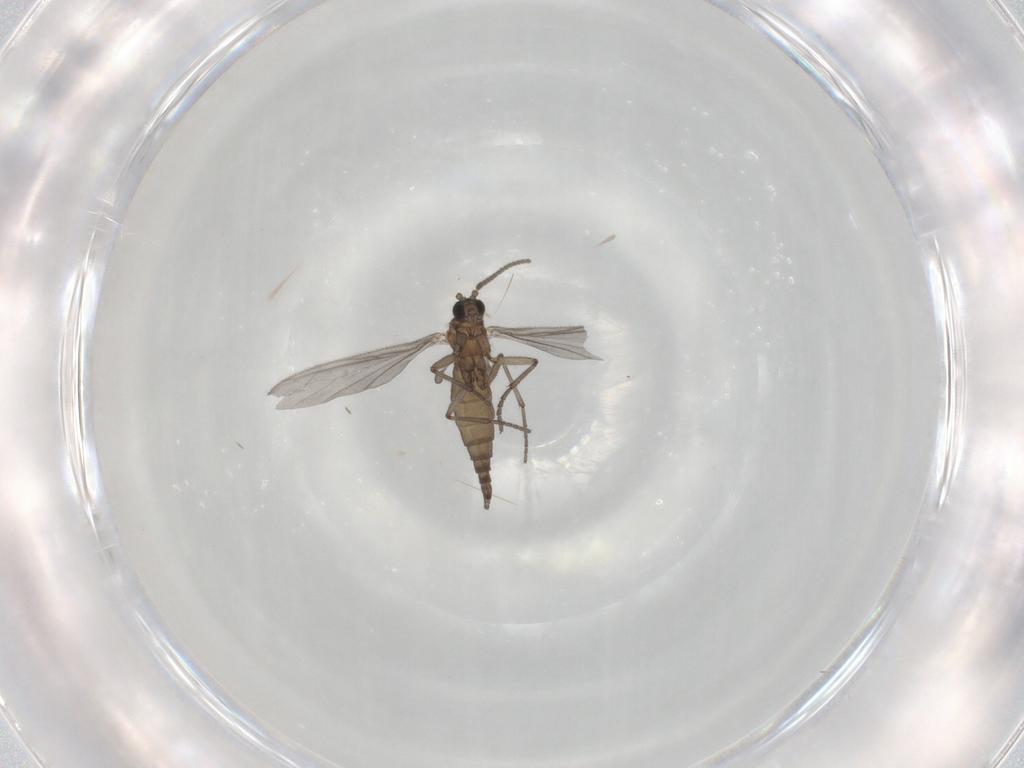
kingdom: Animalia
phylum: Arthropoda
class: Insecta
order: Diptera
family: Sciaridae
